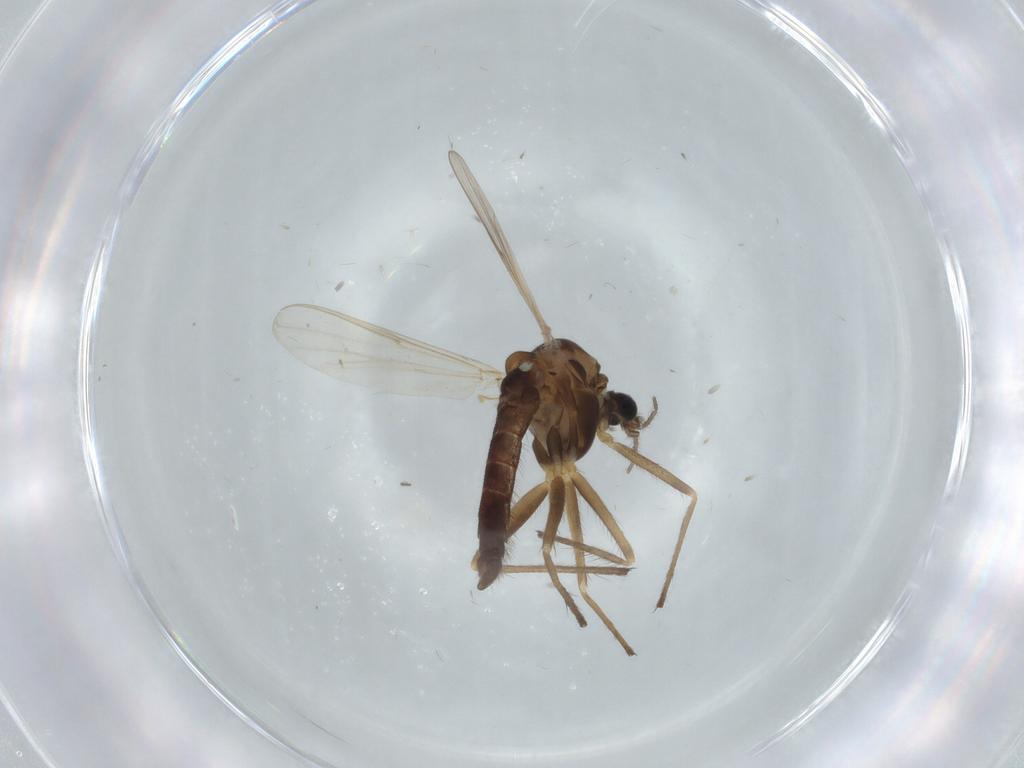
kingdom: Animalia
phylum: Arthropoda
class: Insecta
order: Diptera
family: Chironomidae
